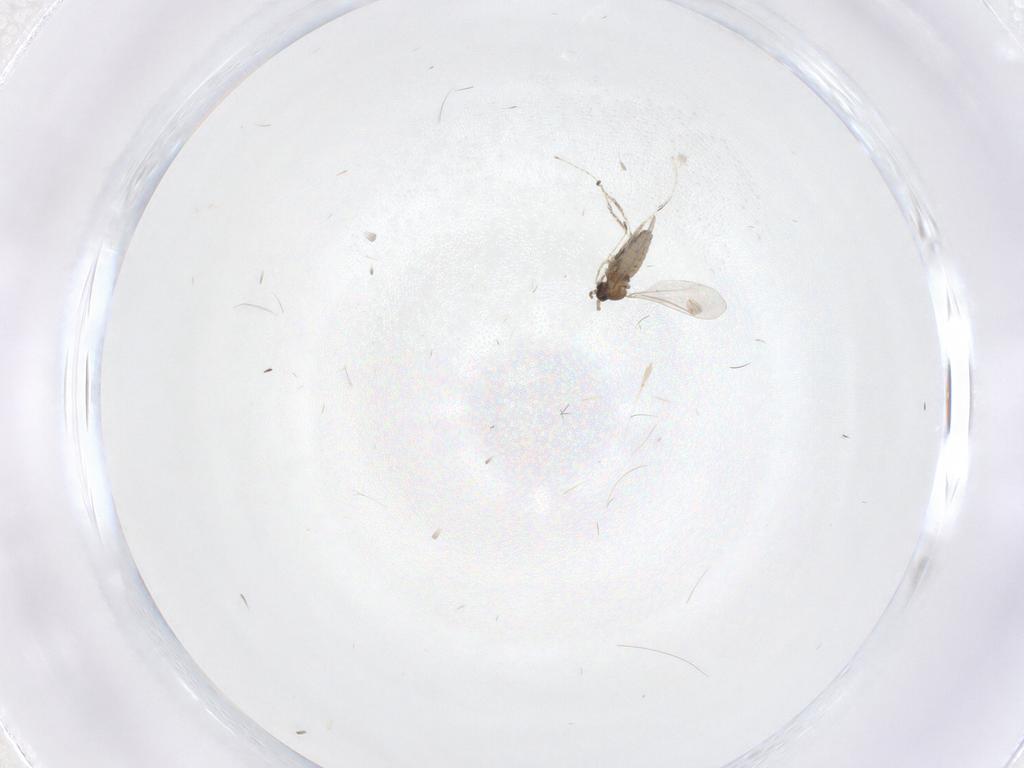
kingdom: Animalia
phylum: Arthropoda
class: Insecta
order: Diptera
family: Cecidomyiidae
